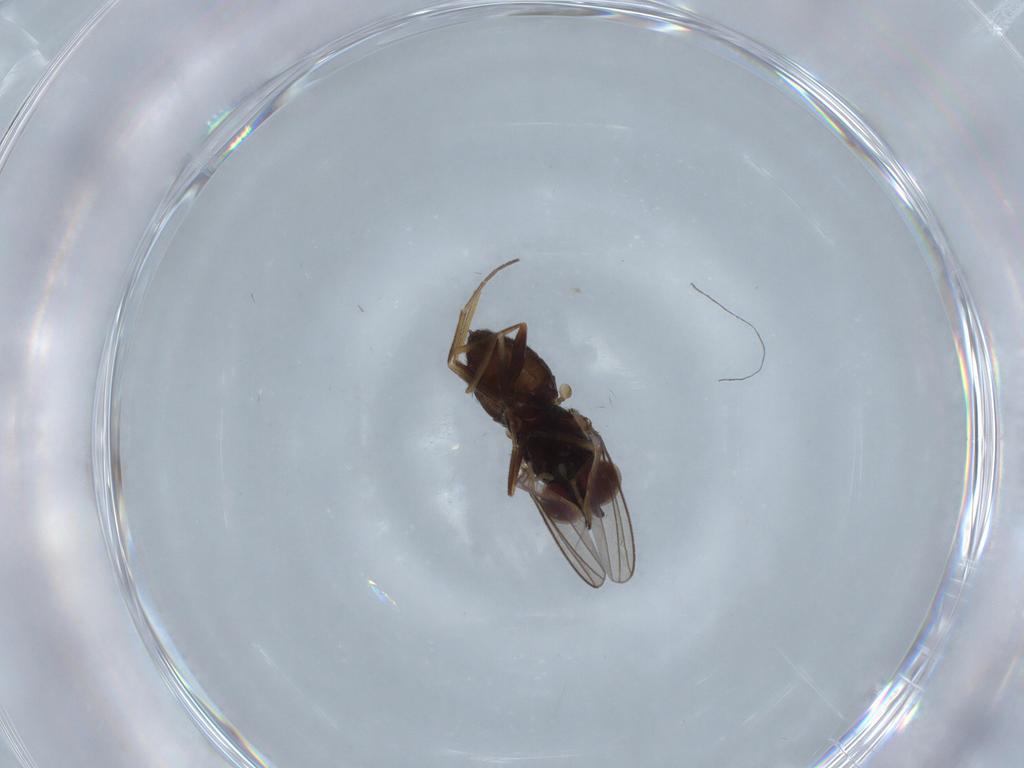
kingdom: Animalia
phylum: Arthropoda
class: Insecta
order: Diptera
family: Dolichopodidae
